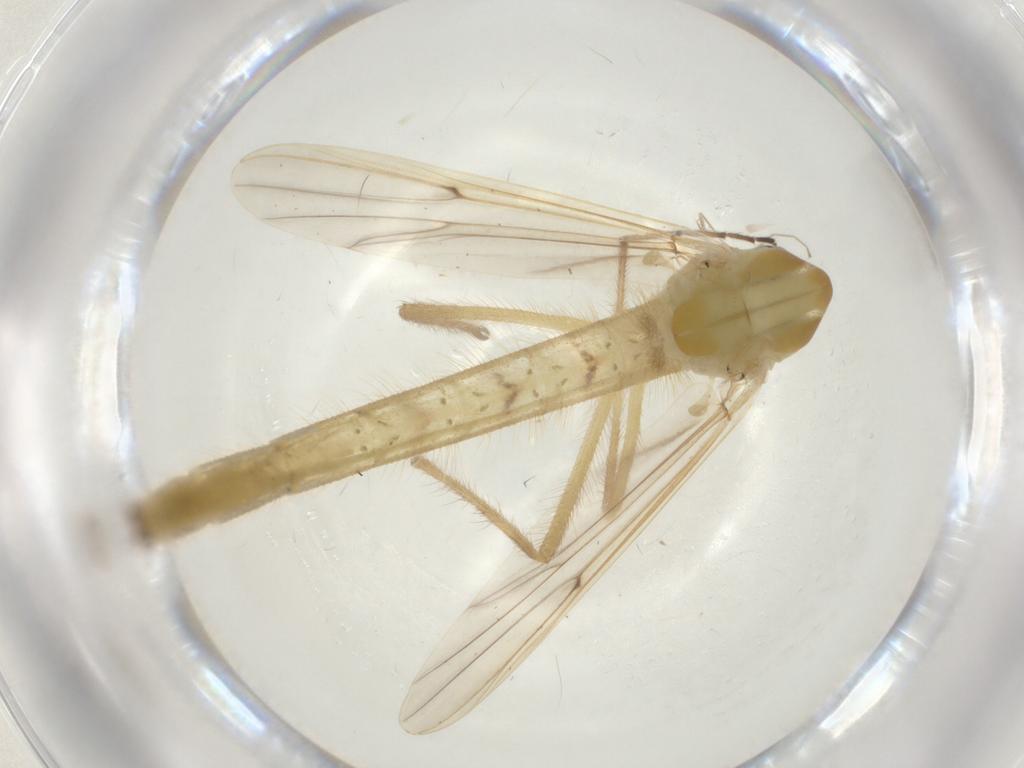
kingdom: Animalia
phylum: Arthropoda
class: Insecta
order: Diptera
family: Chironomidae
